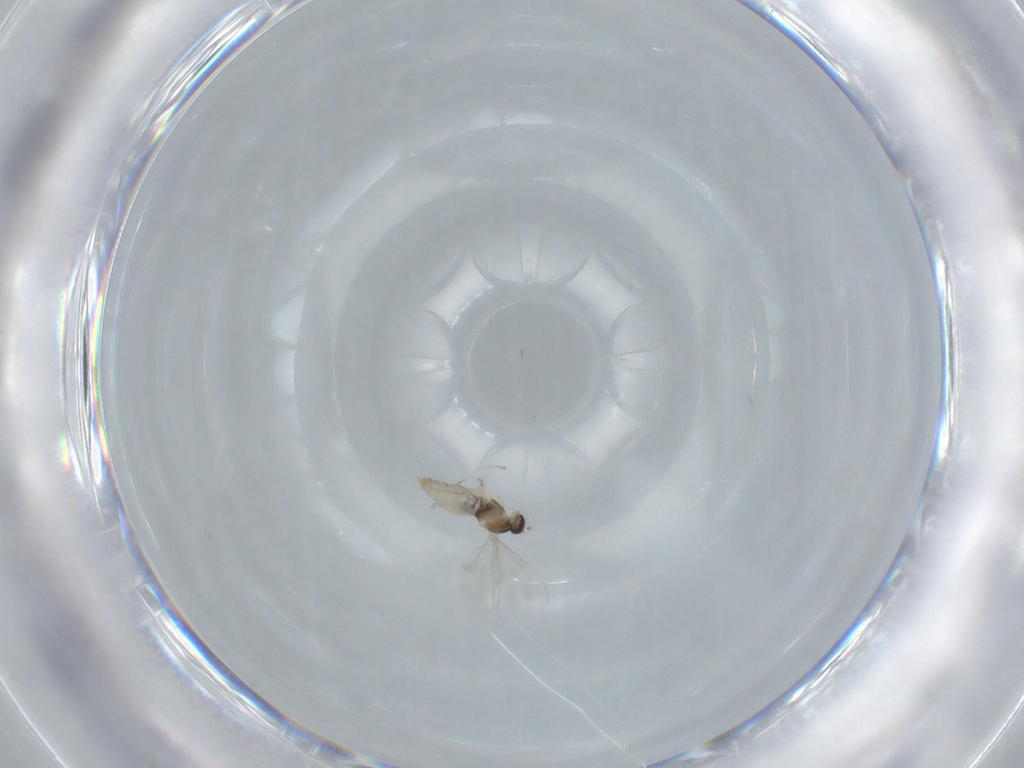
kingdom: Animalia
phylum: Arthropoda
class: Insecta
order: Diptera
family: Cecidomyiidae
